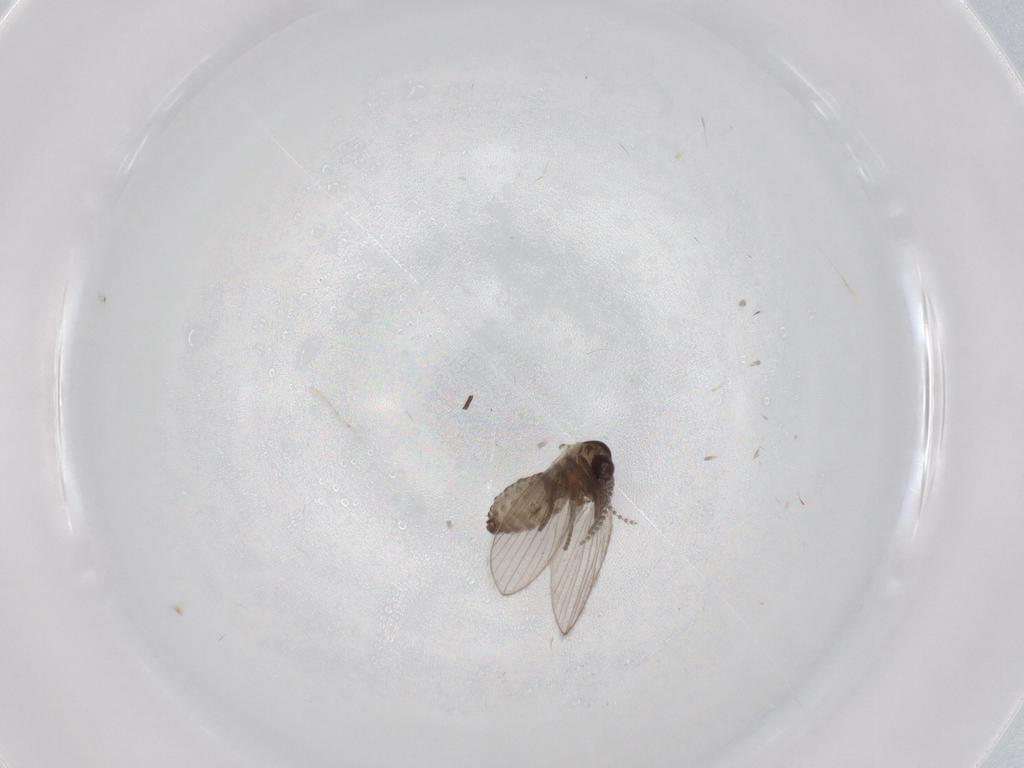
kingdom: Animalia
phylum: Arthropoda
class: Insecta
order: Diptera
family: Psychodidae
